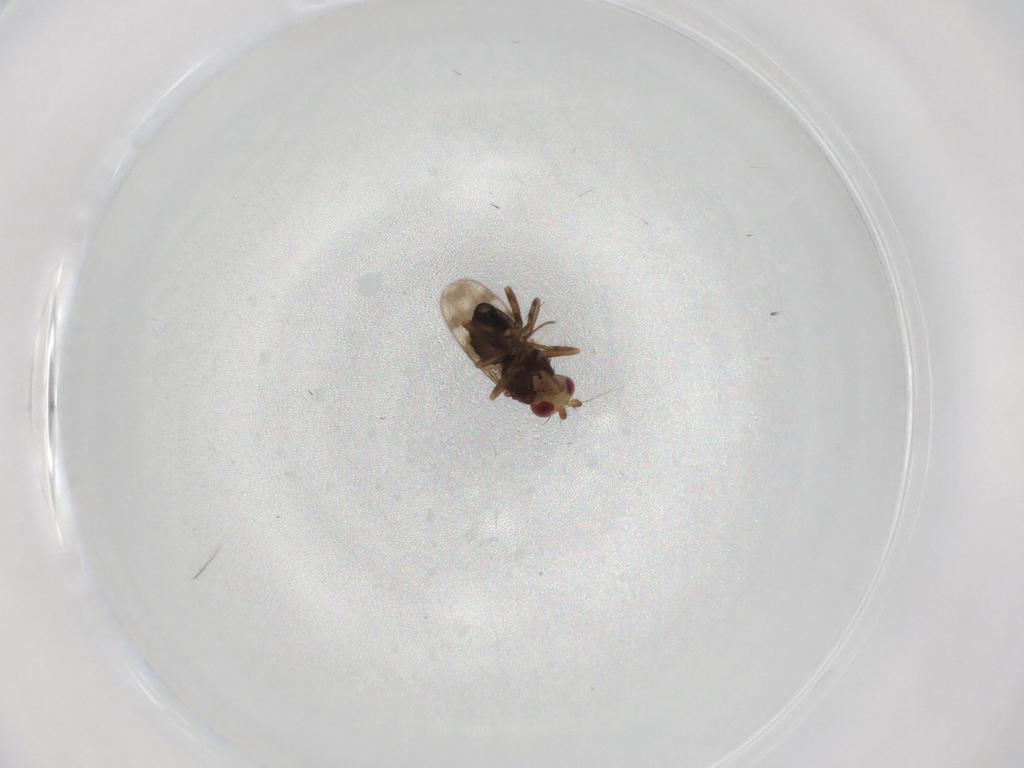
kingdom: Animalia
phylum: Arthropoda
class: Insecta
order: Diptera
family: Sphaeroceridae
